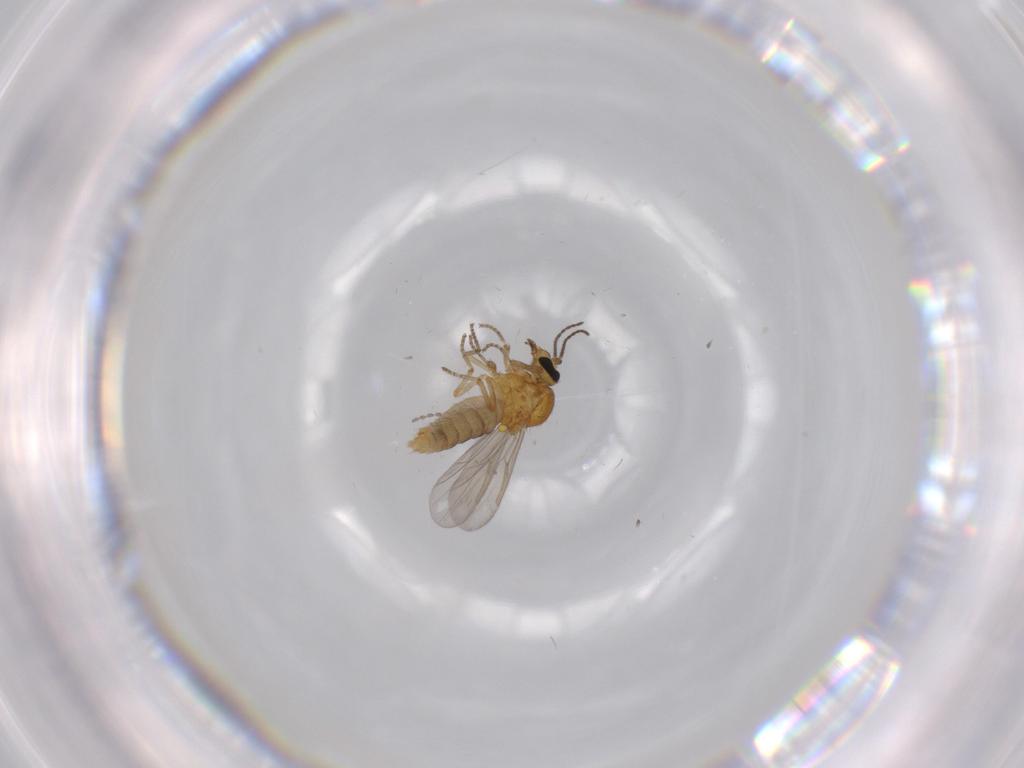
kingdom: Animalia
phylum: Arthropoda
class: Insecta
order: Diptera
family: Ceratopogonidae
